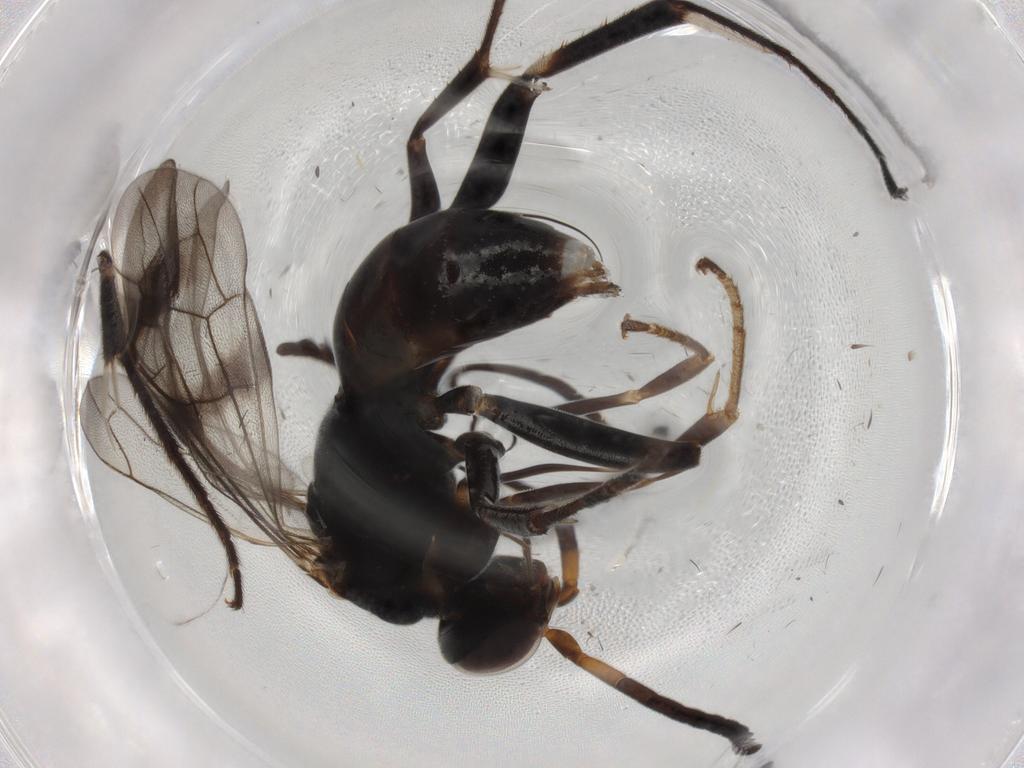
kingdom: Animalia
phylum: Arthropoda
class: Insecta
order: Hymenoptera
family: Pompilidae
